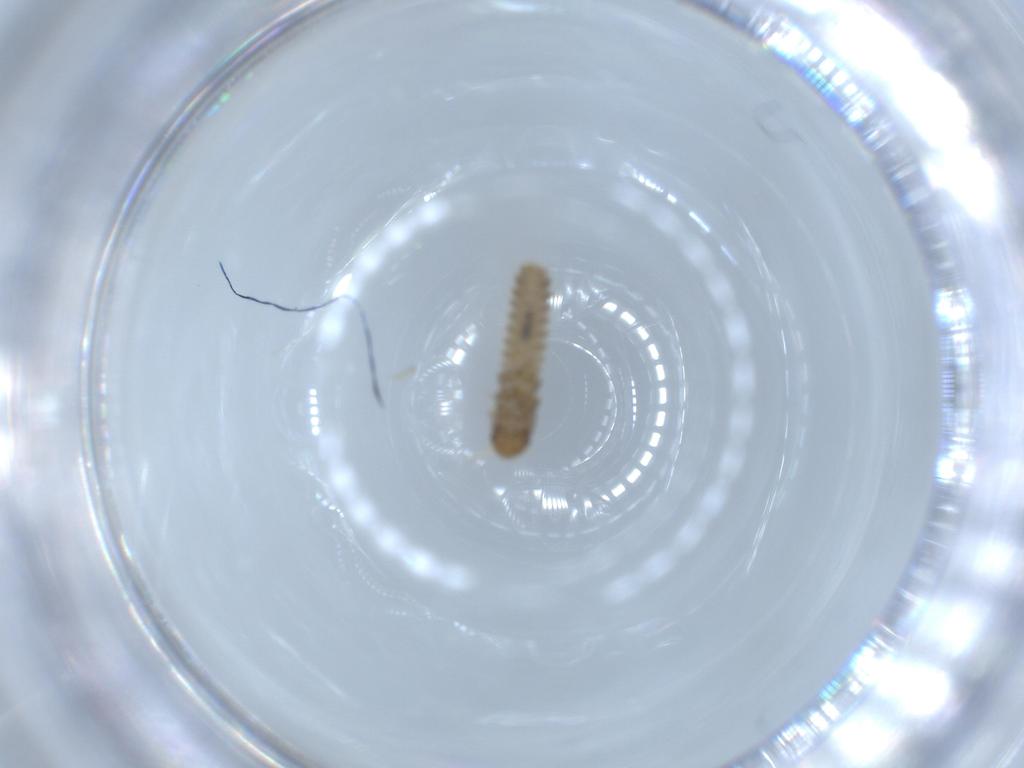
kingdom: Animalia
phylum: Arthropoda
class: Insecta
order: Coleoptera
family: Staphylinidae
